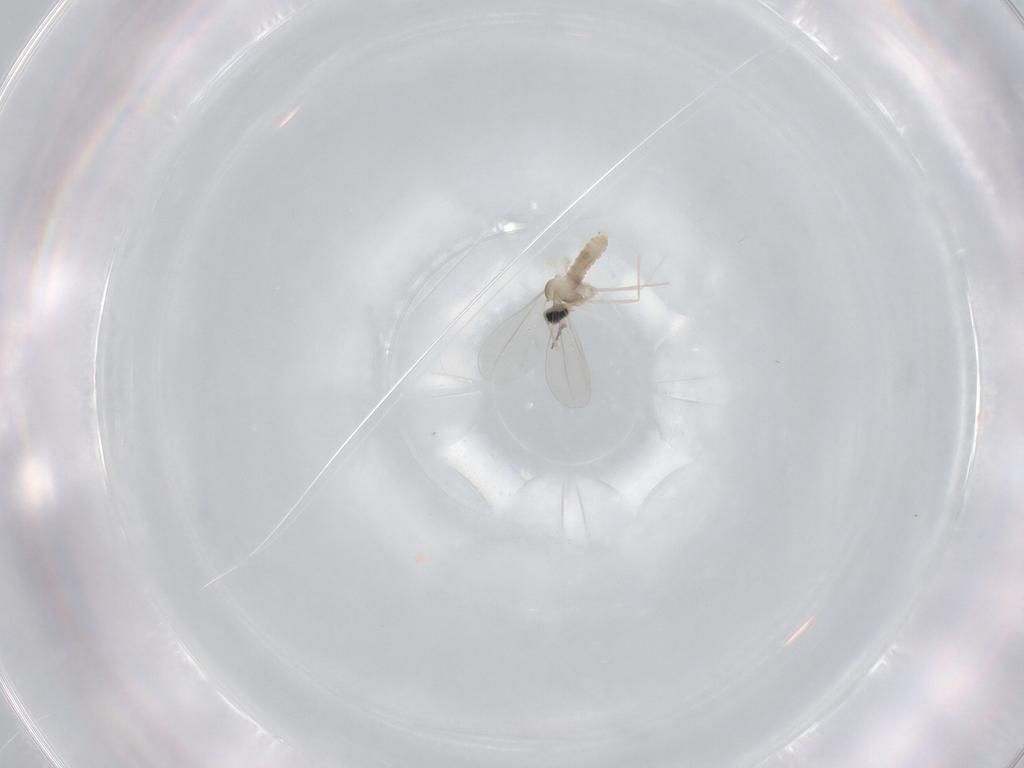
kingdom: Animalia
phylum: Arthropoda
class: Insecta
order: Diptera
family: Cecidomyiidae
